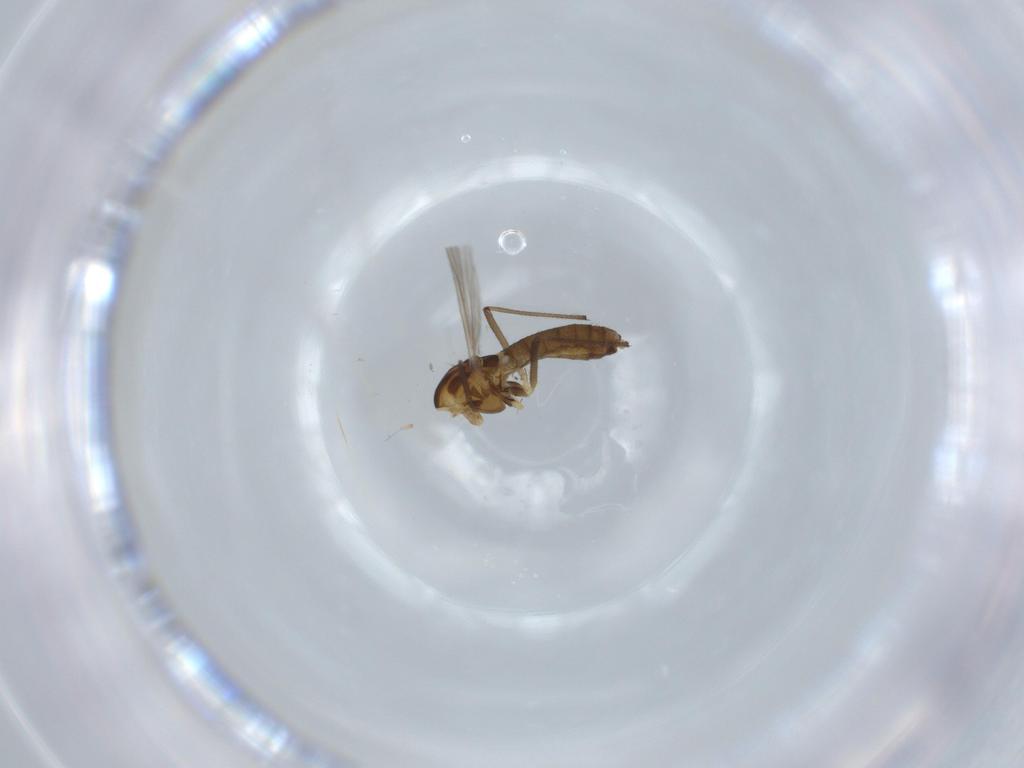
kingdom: Animalia
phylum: Arthropoda
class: Insecta
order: Diptera
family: Chironomidae
